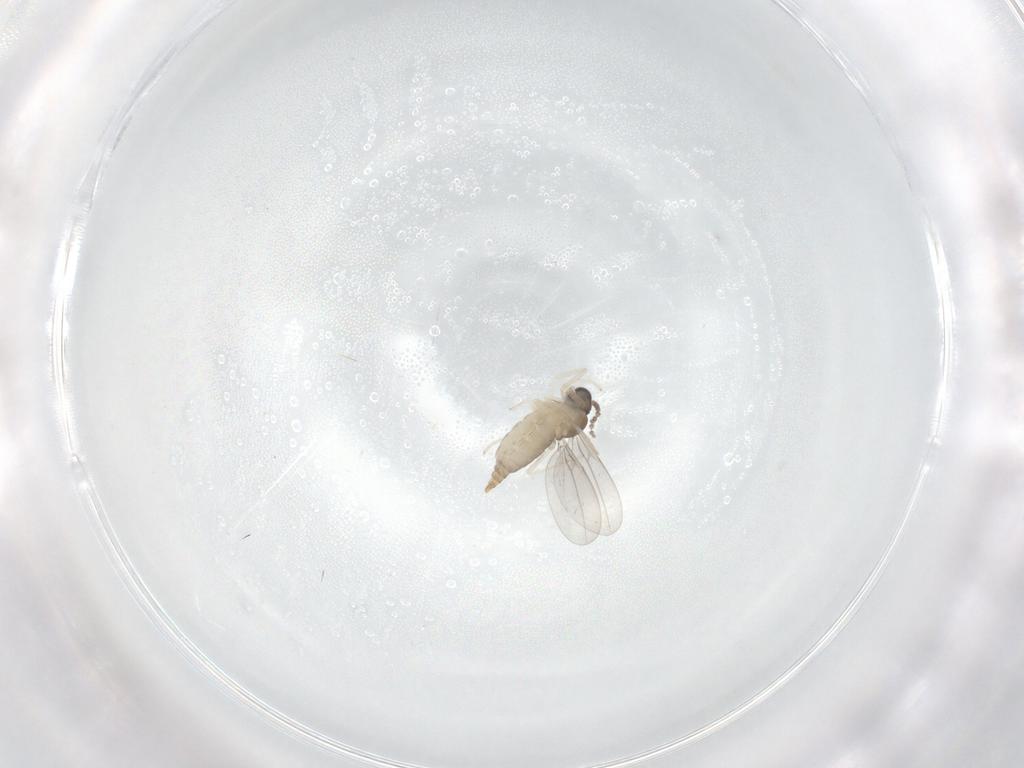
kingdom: Animalia
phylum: Arthropoda
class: Insecta
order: Diptera
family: Cecidomyiidae
